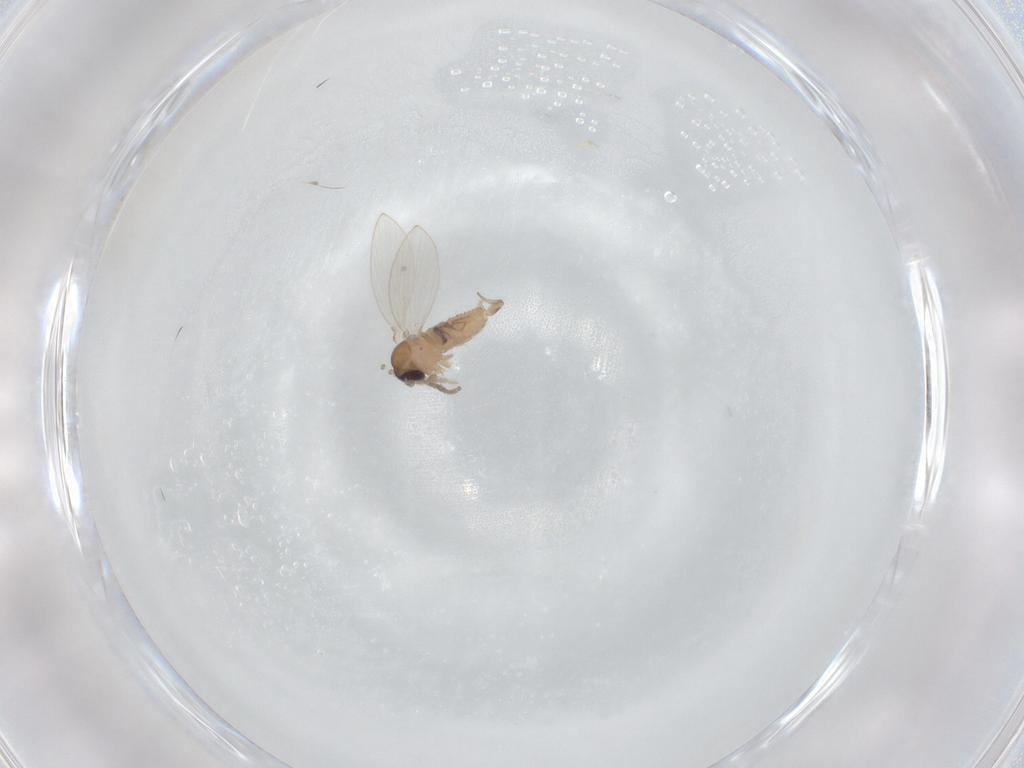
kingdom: Animalia
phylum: Arthropoda
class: Insecta
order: Diptera
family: Psychodidae
